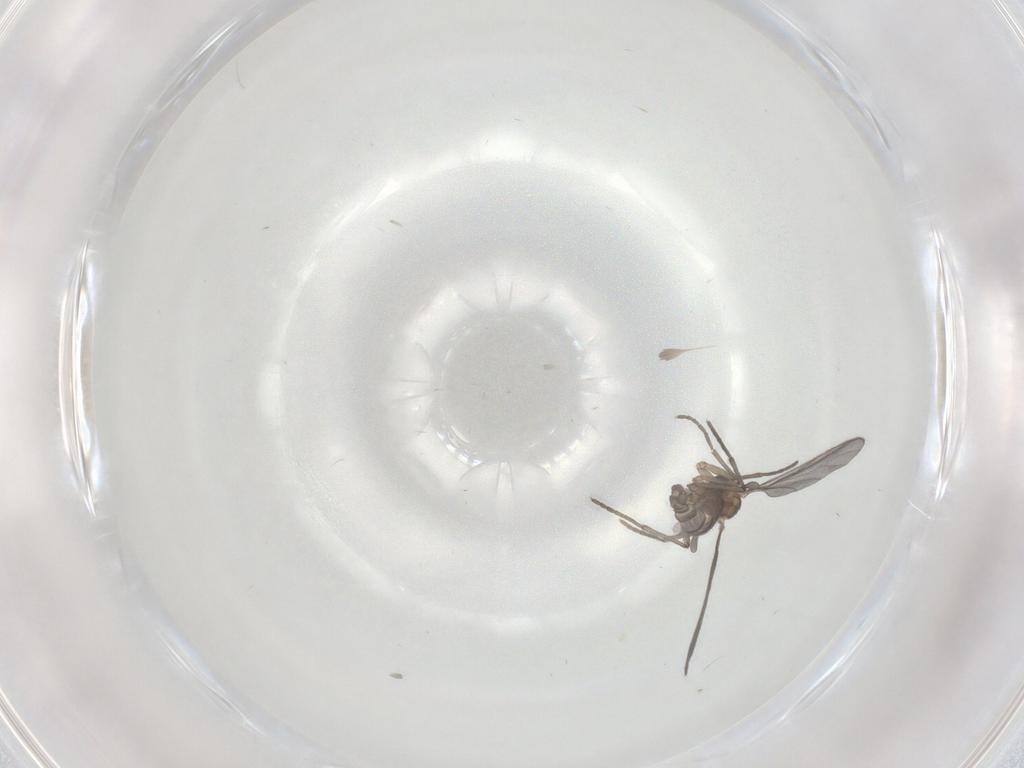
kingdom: Animalia
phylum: Arthropoda
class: Insecta
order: Diptera
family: Sciaridae
